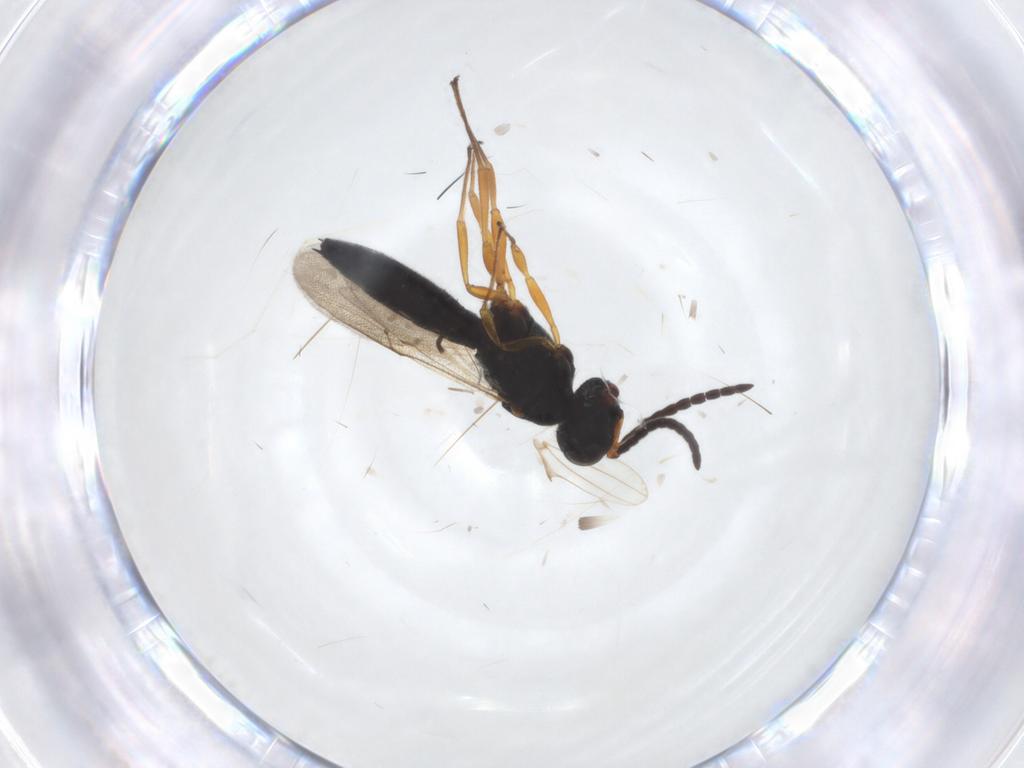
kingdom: Animalia
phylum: Arthropoda
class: Insecta
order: Hymenoptera
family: Scelionidae
